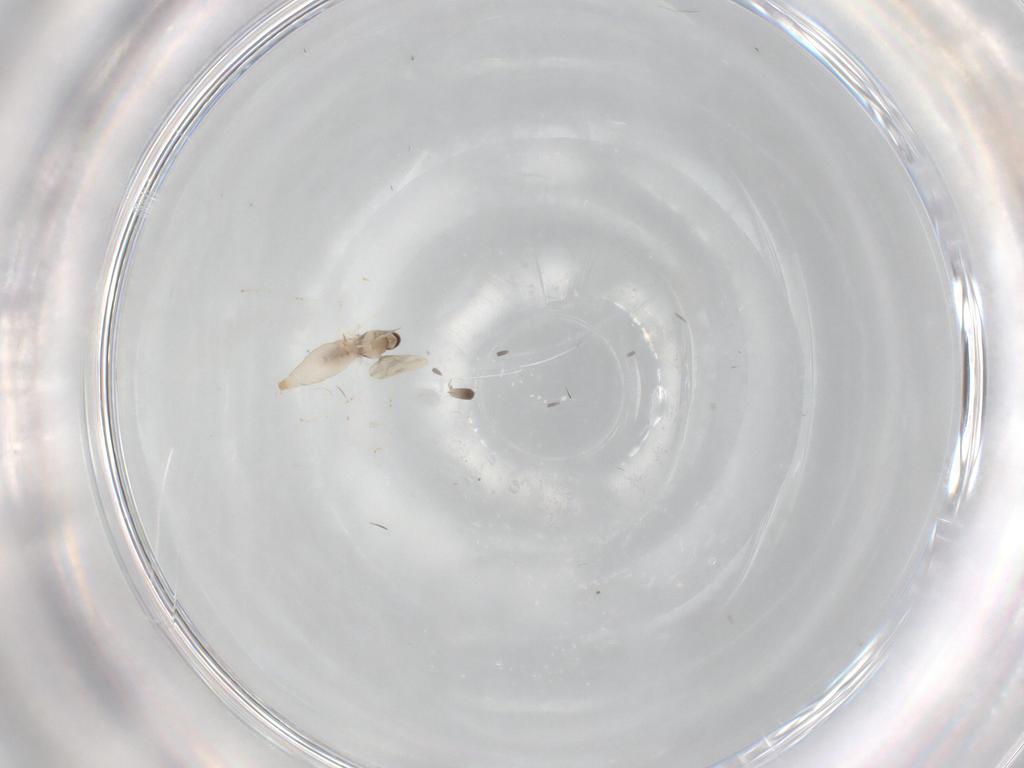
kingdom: Animalia
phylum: Arthropoda
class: Insecta
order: Diptera
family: Cecidomyiidae
